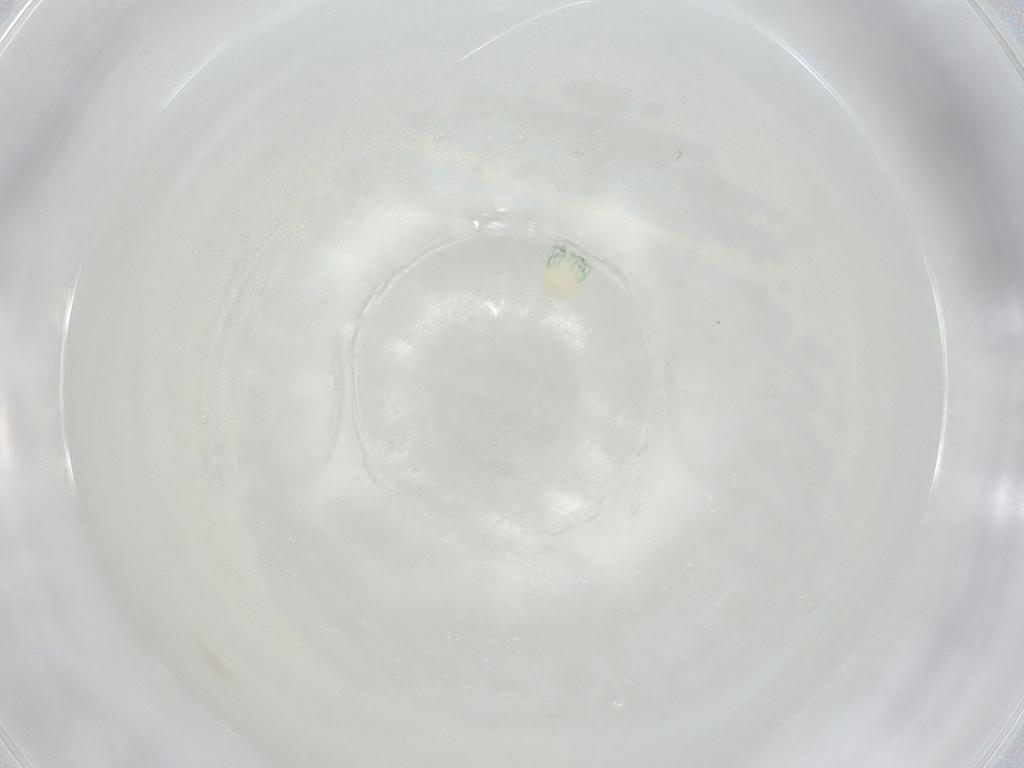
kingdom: Animalia
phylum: Arthropoda
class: Arachnida
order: Trombidiformes
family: Arrenuridae
